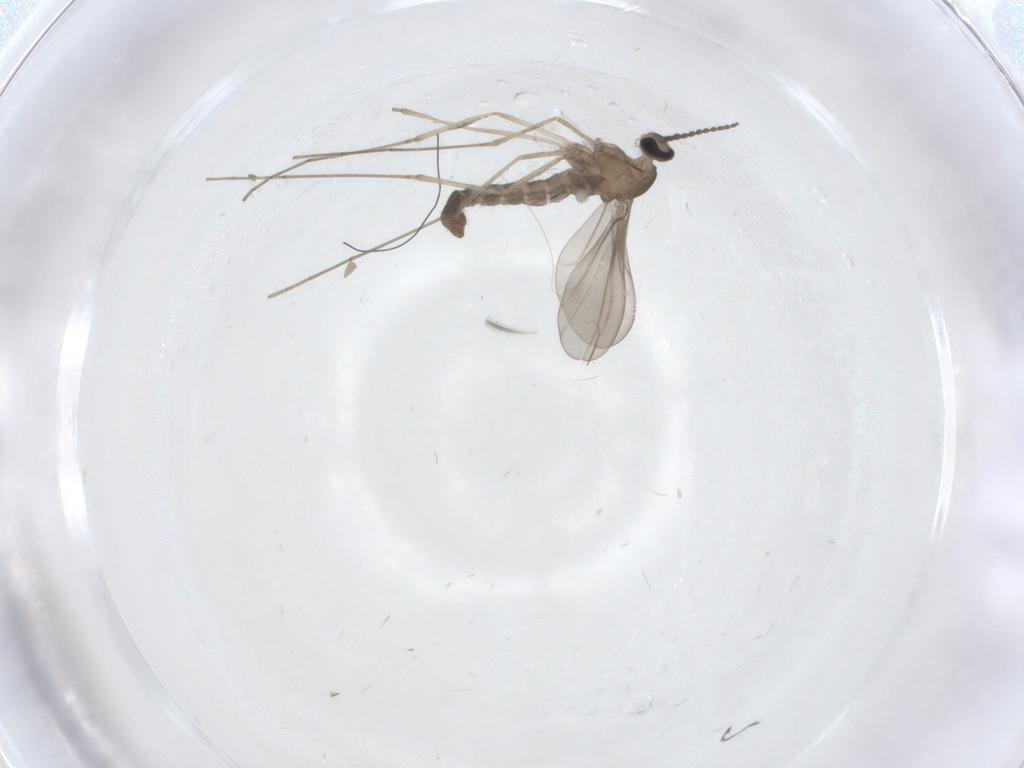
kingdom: Animalia
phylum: Arthropoda
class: Insecta
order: Diptera
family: Cecidomyiidae
